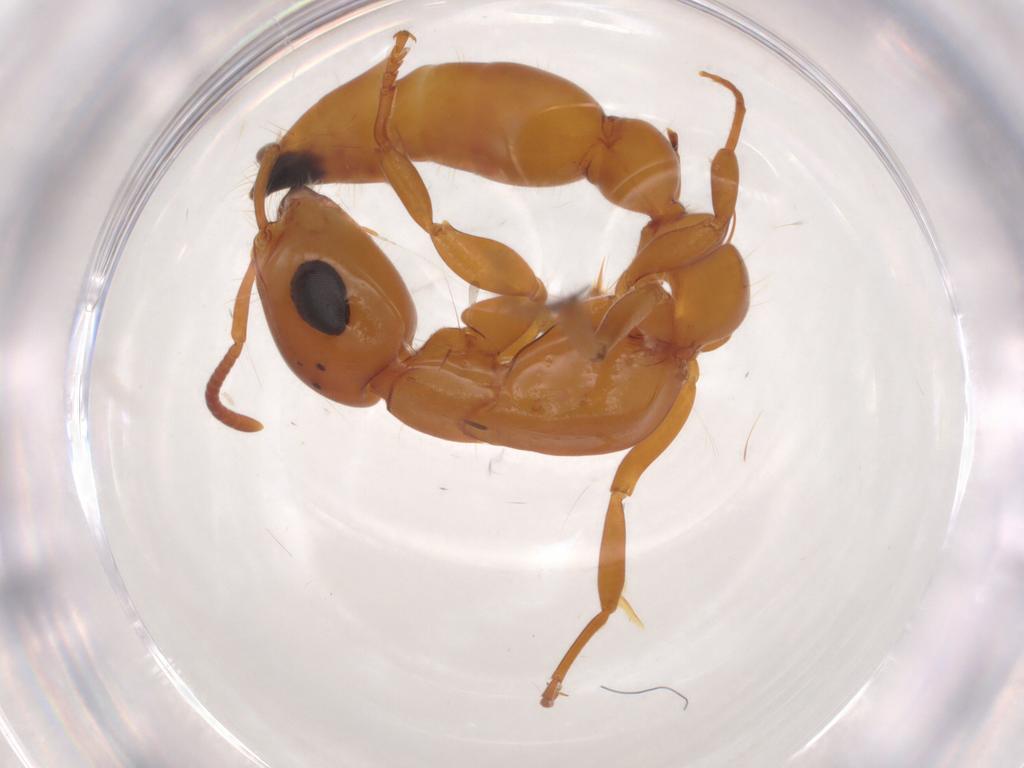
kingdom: Animalia
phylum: Arthropoda
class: Insecta
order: Hymenoptera
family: Formicidae
